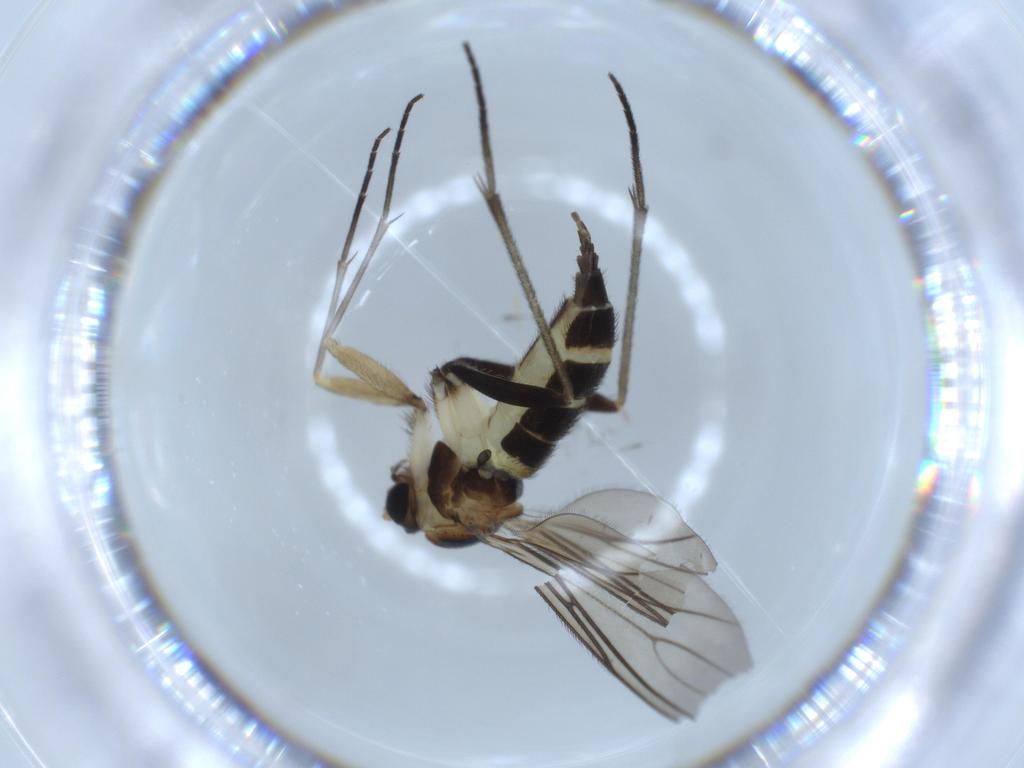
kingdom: Animalia
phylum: Arthropoda
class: Insecta
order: Diptera
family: Sciaridae
